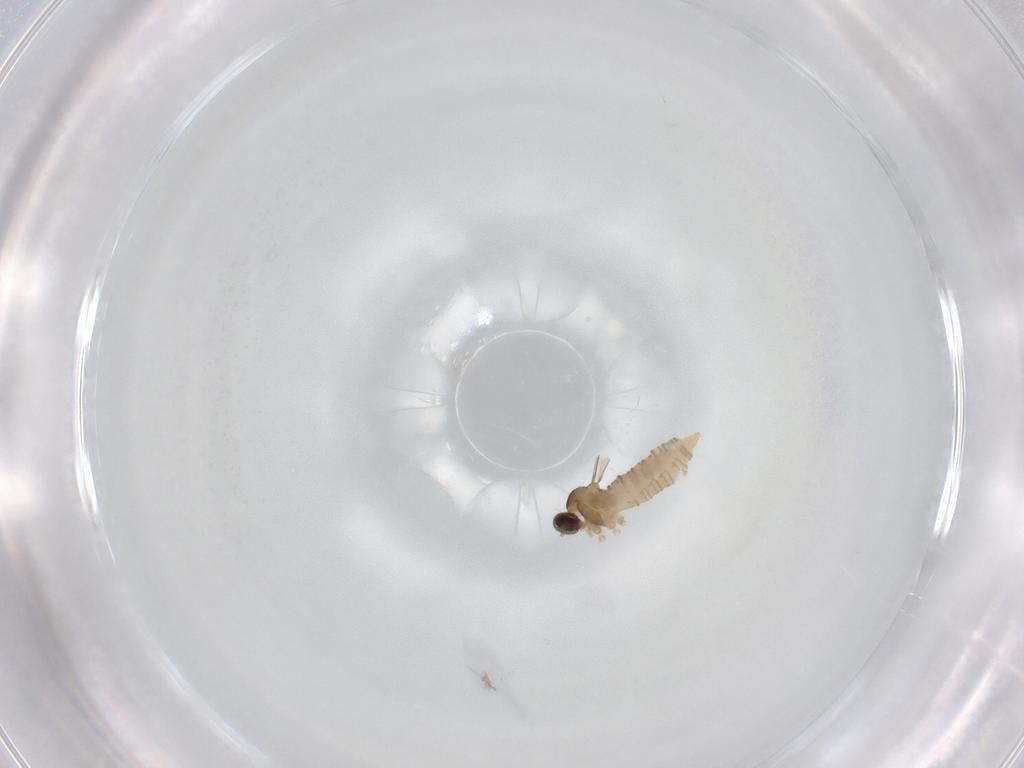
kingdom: Animalia
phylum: Arthropoda
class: Insecta
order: Diptera
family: Cecidomyiidae
